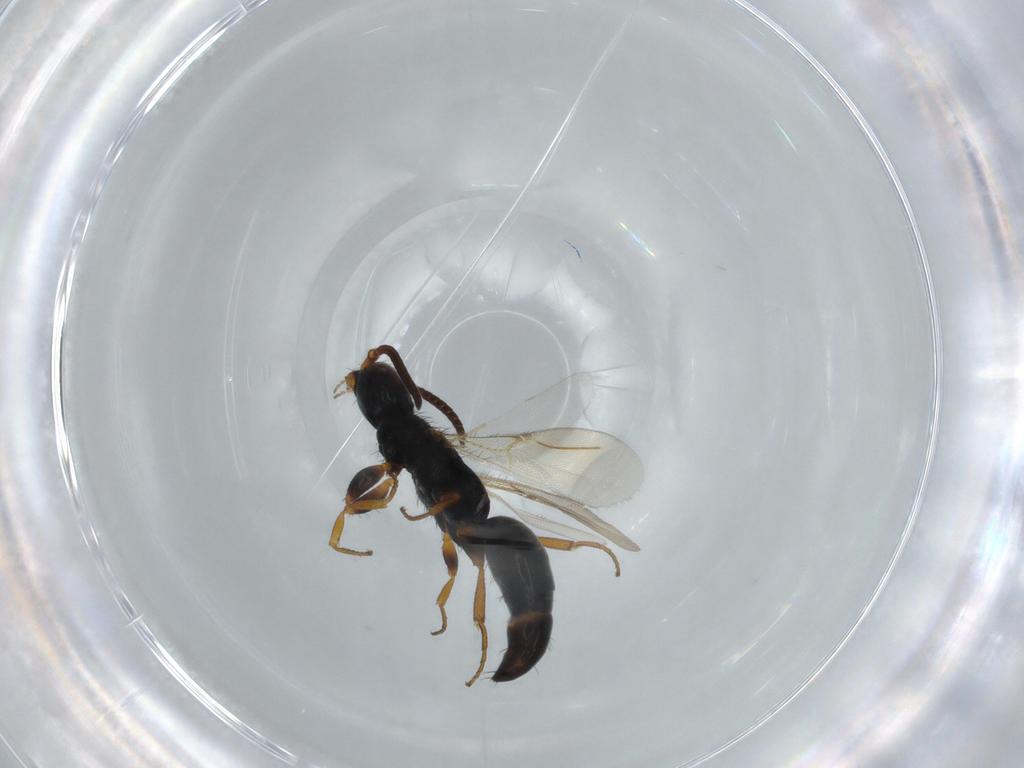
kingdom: Animalia
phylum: Arthropoda
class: Insecta
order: Hymenoptera
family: Bethylidae
